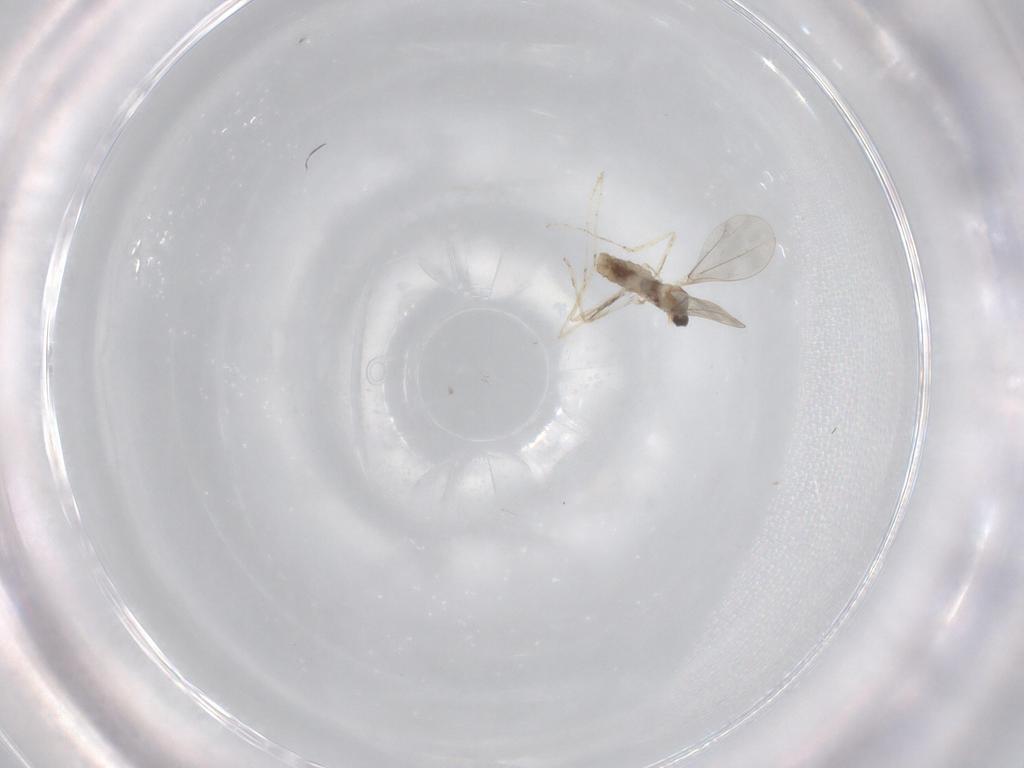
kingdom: Animalia
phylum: Arthropoda
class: Insecta
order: Diptera
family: Cecidomyiidae
